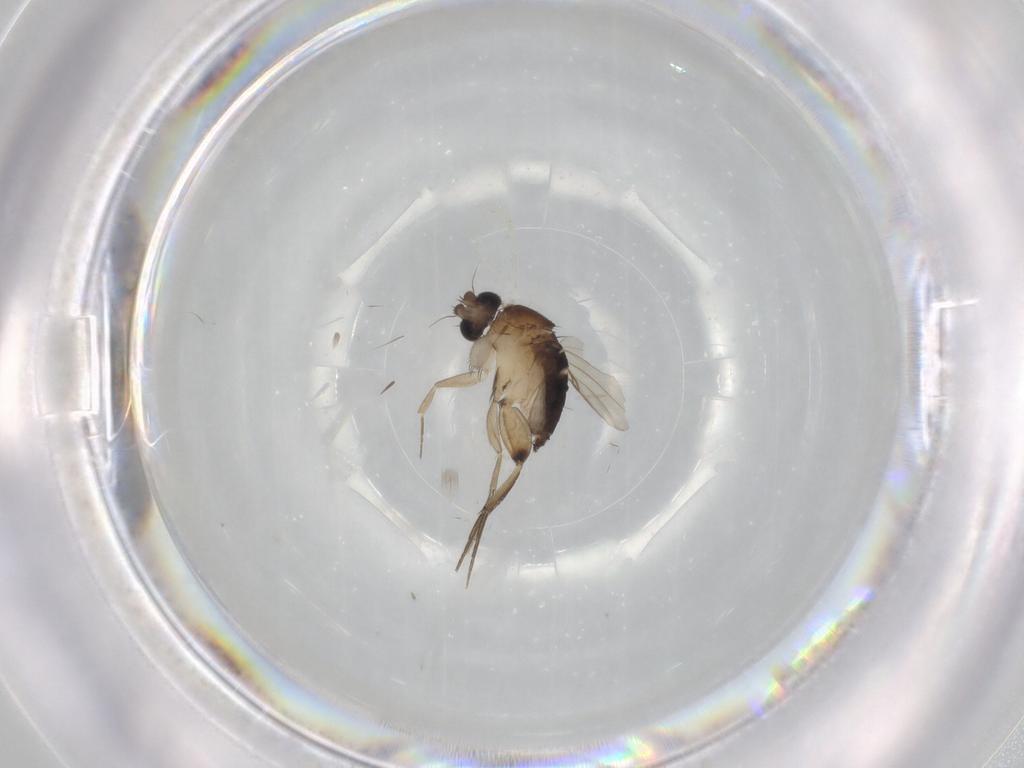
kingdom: Animalia
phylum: Arthropoda
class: Insecta
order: Diptera
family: Phoridae
